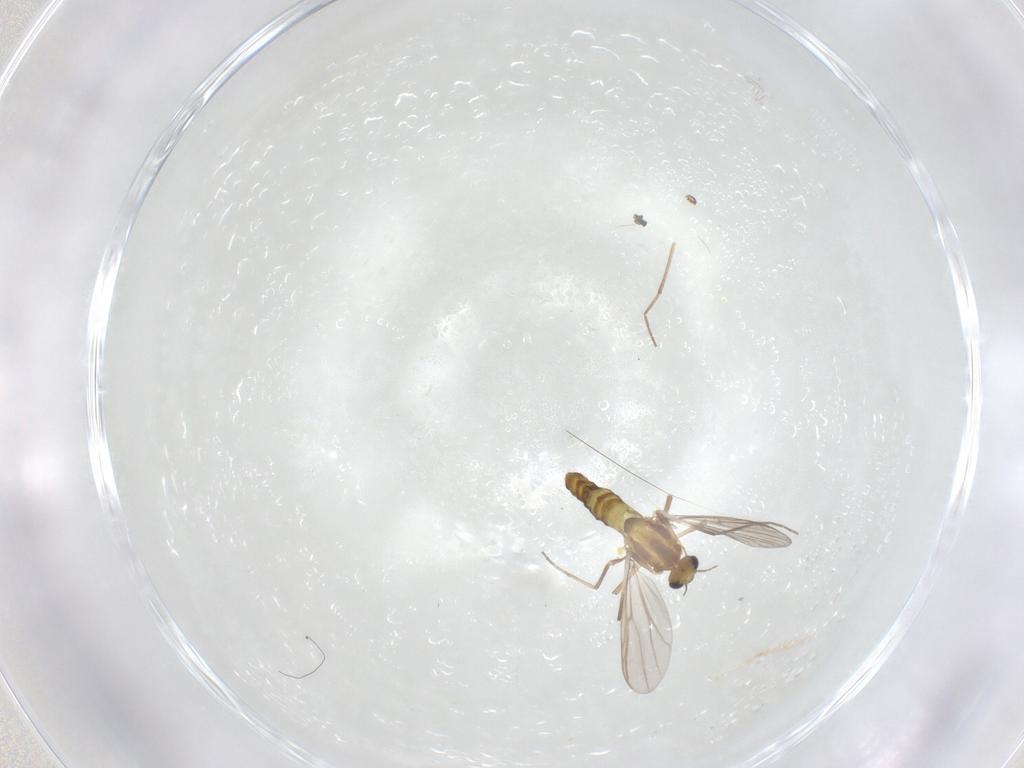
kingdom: Animalia
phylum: Arthropoda
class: Insecta
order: Diptera
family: Chironomidae
